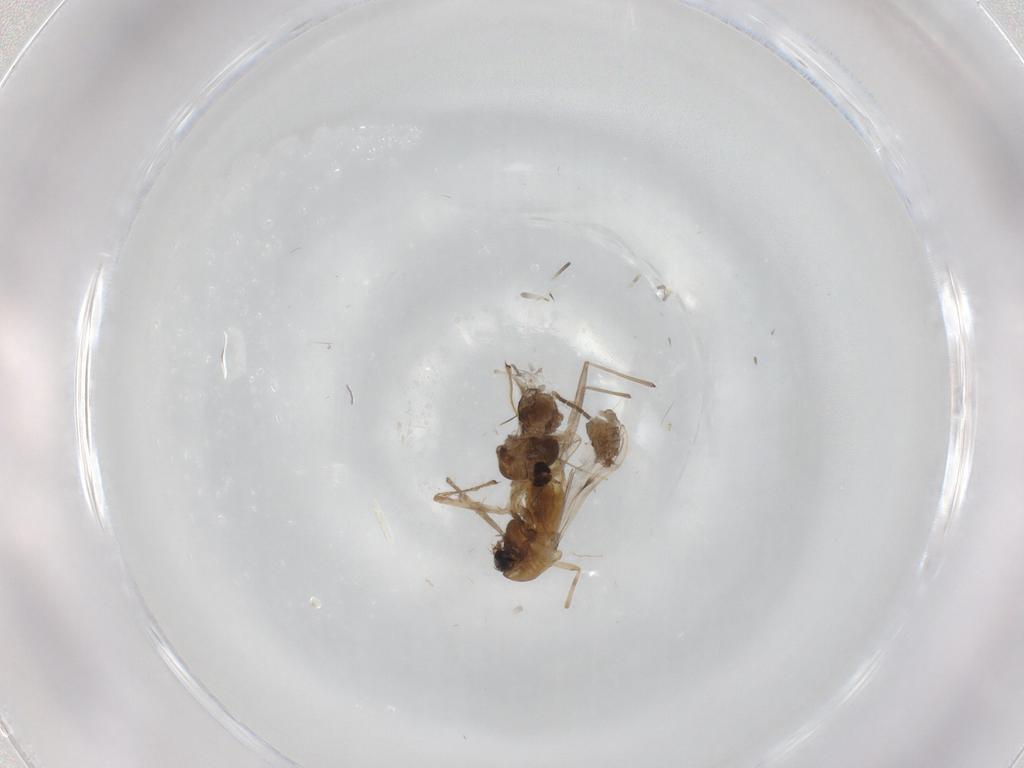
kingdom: Animalia
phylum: Arthropoda
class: Insecta
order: Diptera
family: Chironomidae
